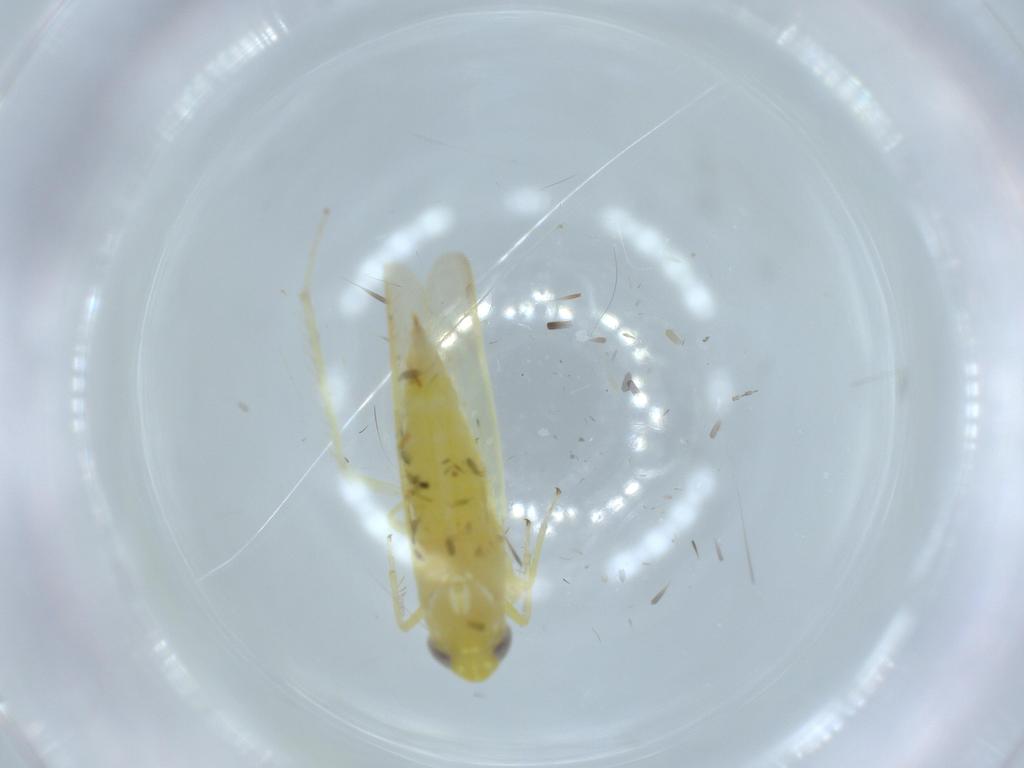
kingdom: Animalia
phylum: Arthropoda
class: Insecta
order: Hemiptera
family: Cicadellidae
